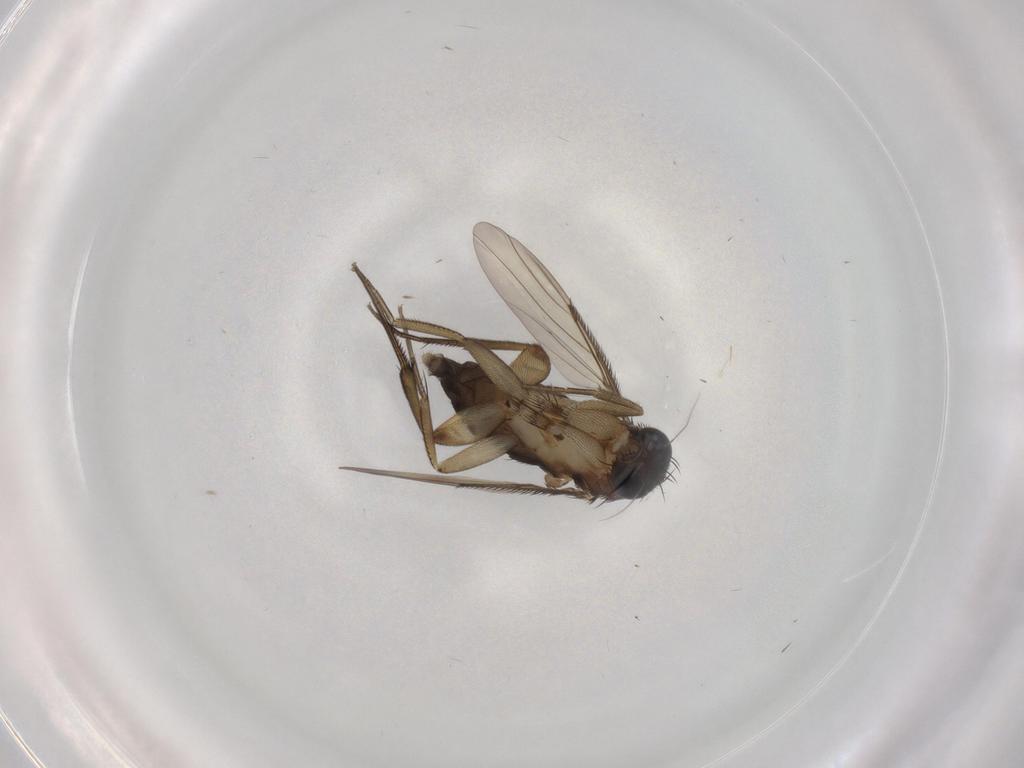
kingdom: Animalia
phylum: Arthropoda
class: Insecta
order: Diptera
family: Phoridae
